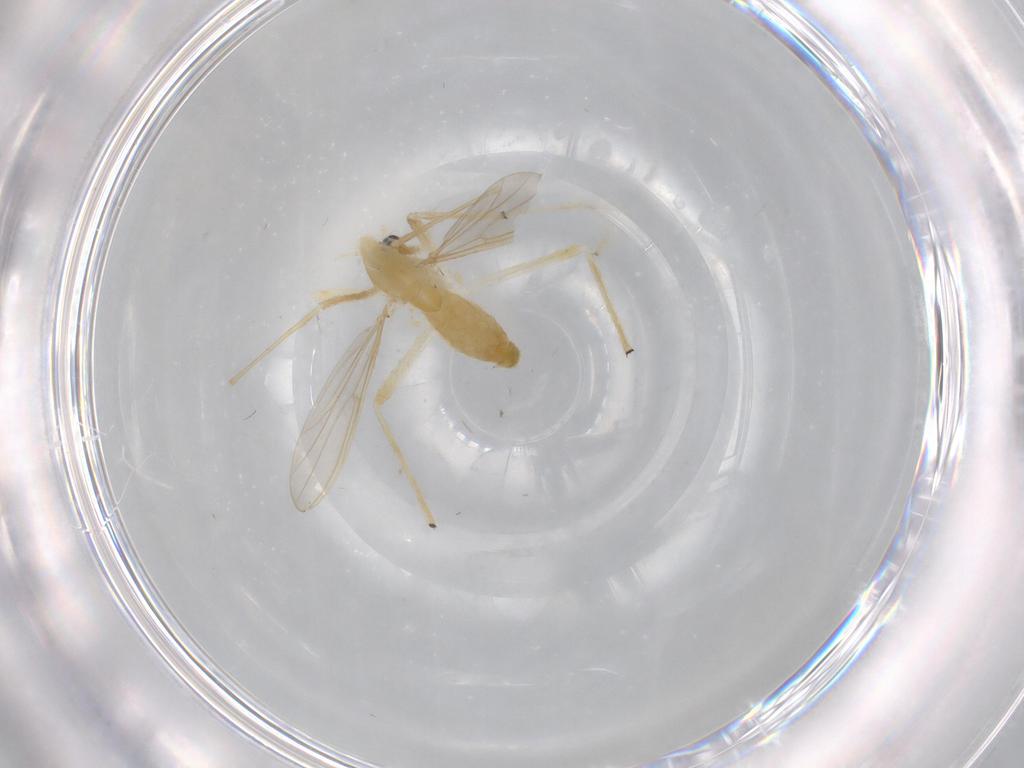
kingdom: Animalia
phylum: Arthropoda
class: Insecta
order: Diptera
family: Chironomidae
